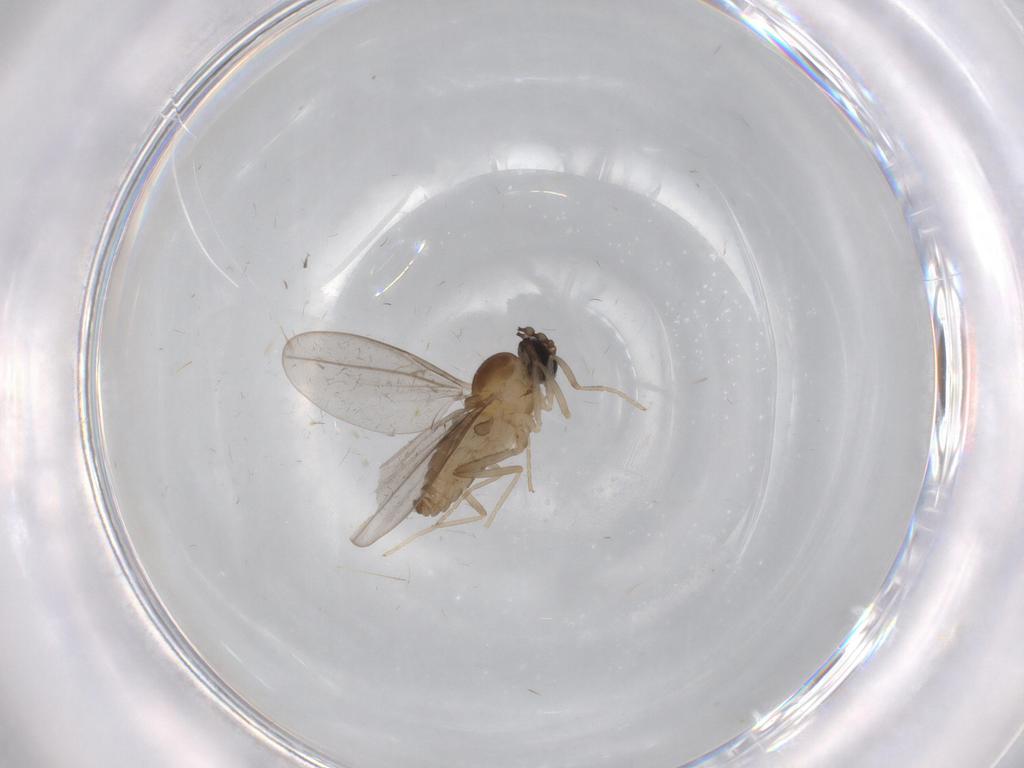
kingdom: Animalia
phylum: Arthropoda
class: Insecta
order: Diptera
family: Cecidomyiidae
